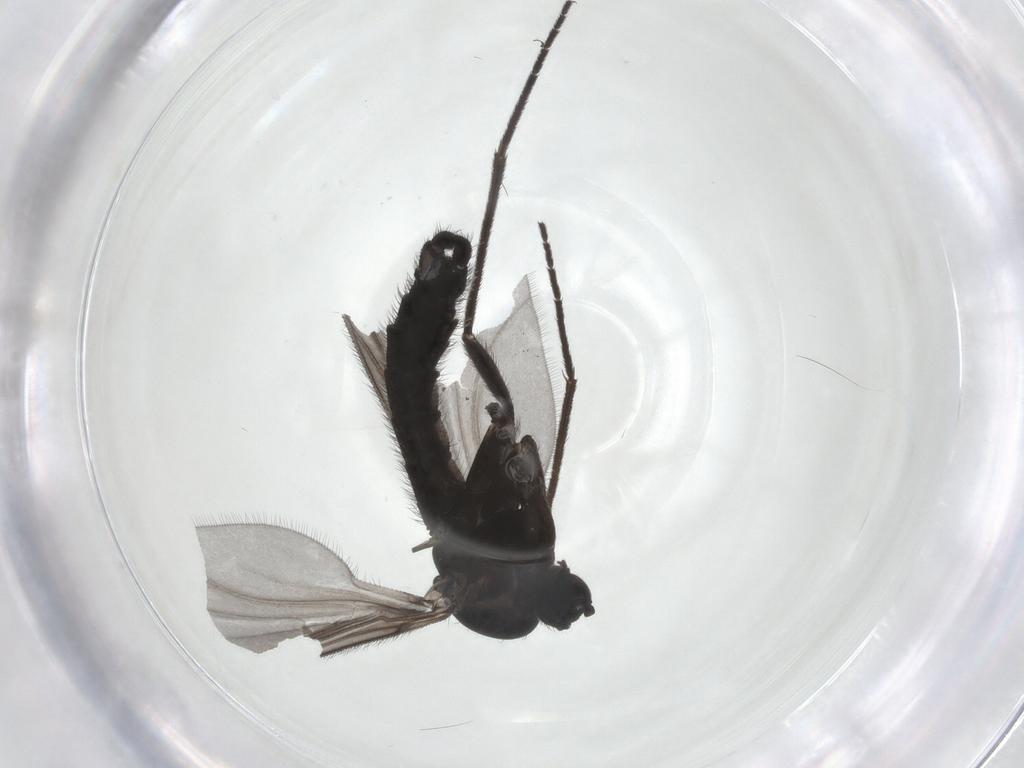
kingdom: Animalia
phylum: Arthropoda
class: Insecta
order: Diptera
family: Sciaridae
